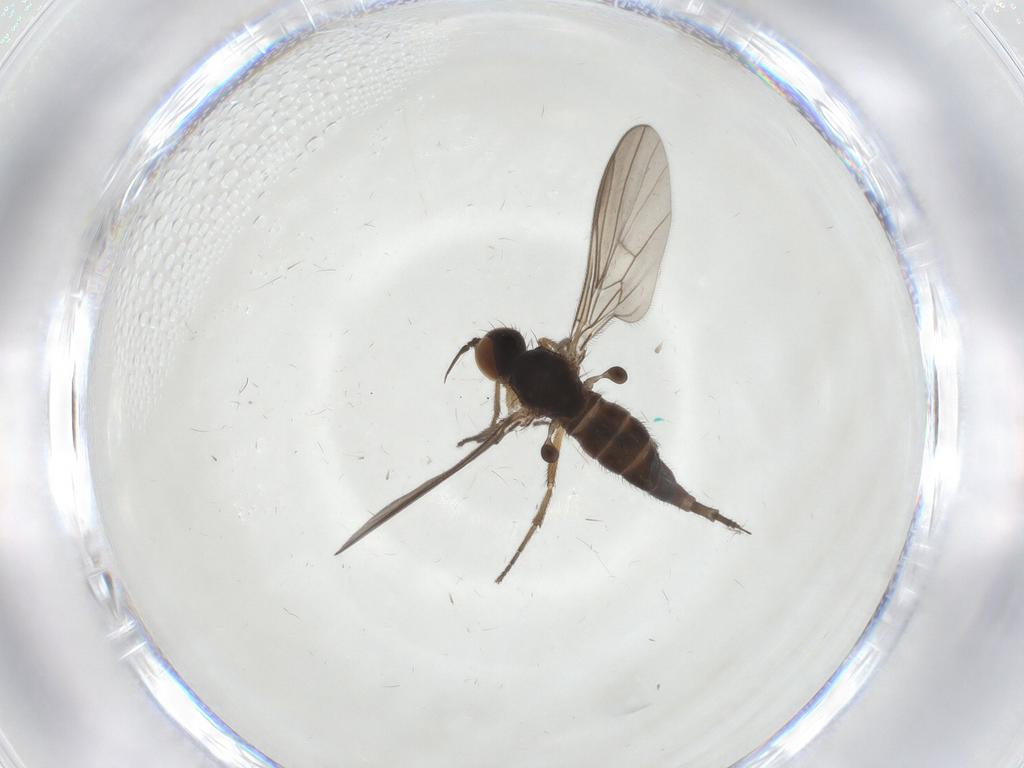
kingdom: Animalia
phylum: Arthropoda
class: Insecta
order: Diptera
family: Empididae
